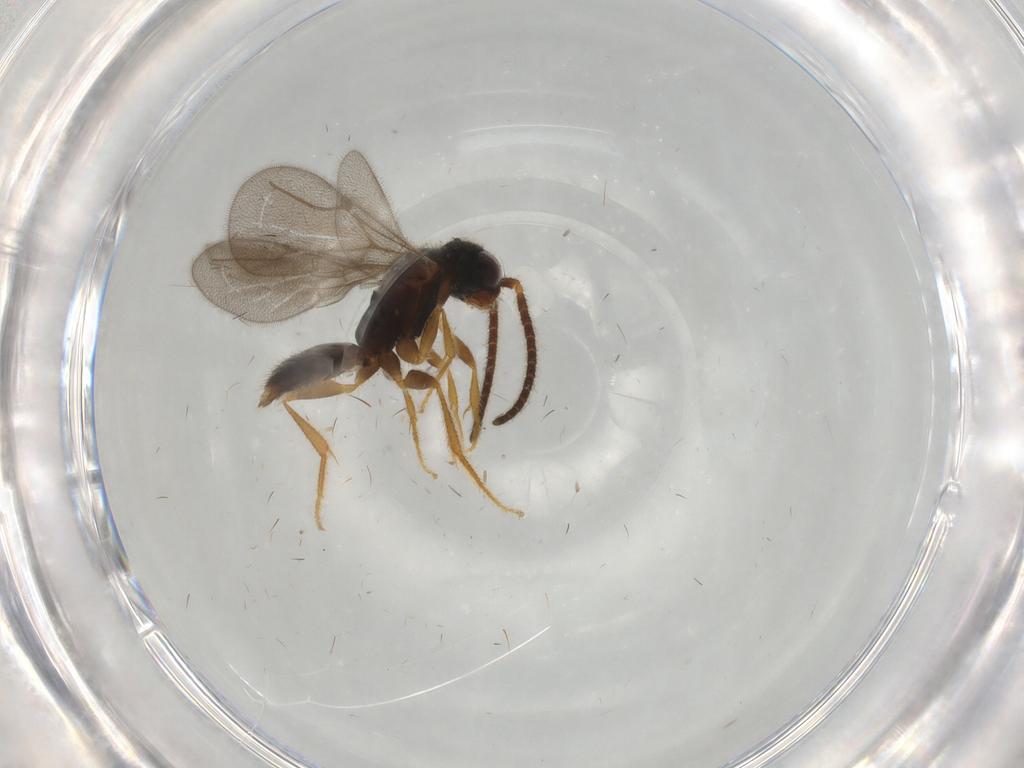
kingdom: Animalia
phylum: Arthropoda
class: Insecta
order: Hymenoptera
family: Bethylidae
